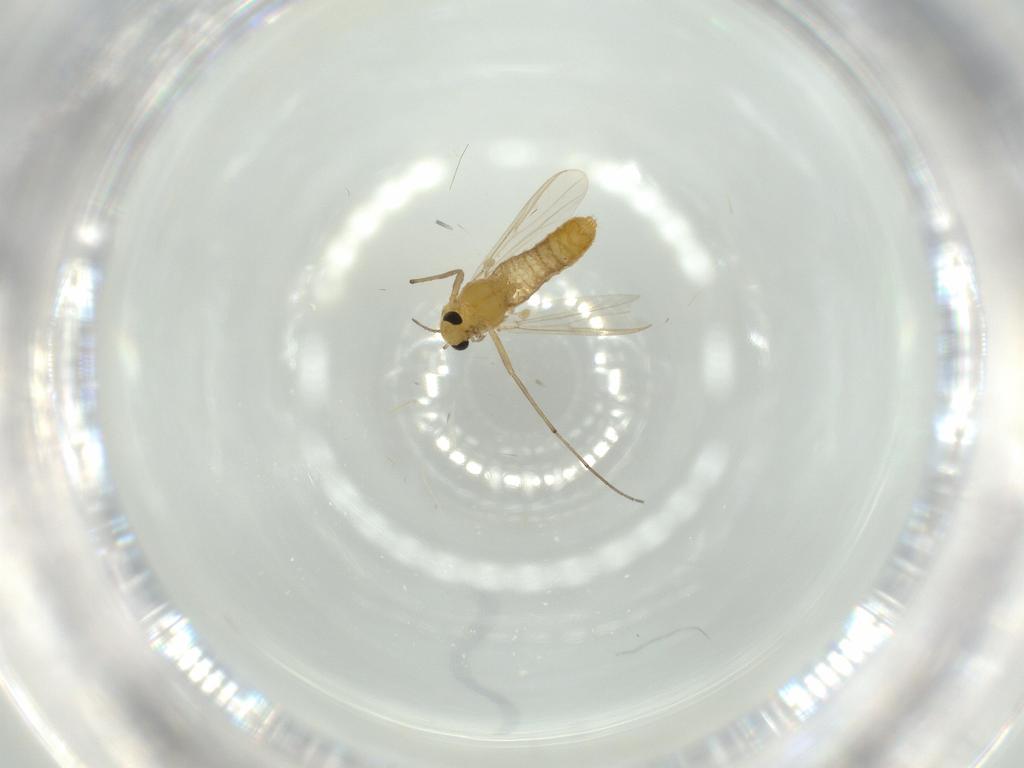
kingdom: Animalia
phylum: Arthropoda
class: Insecta
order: Diptera
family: Chironomidae
